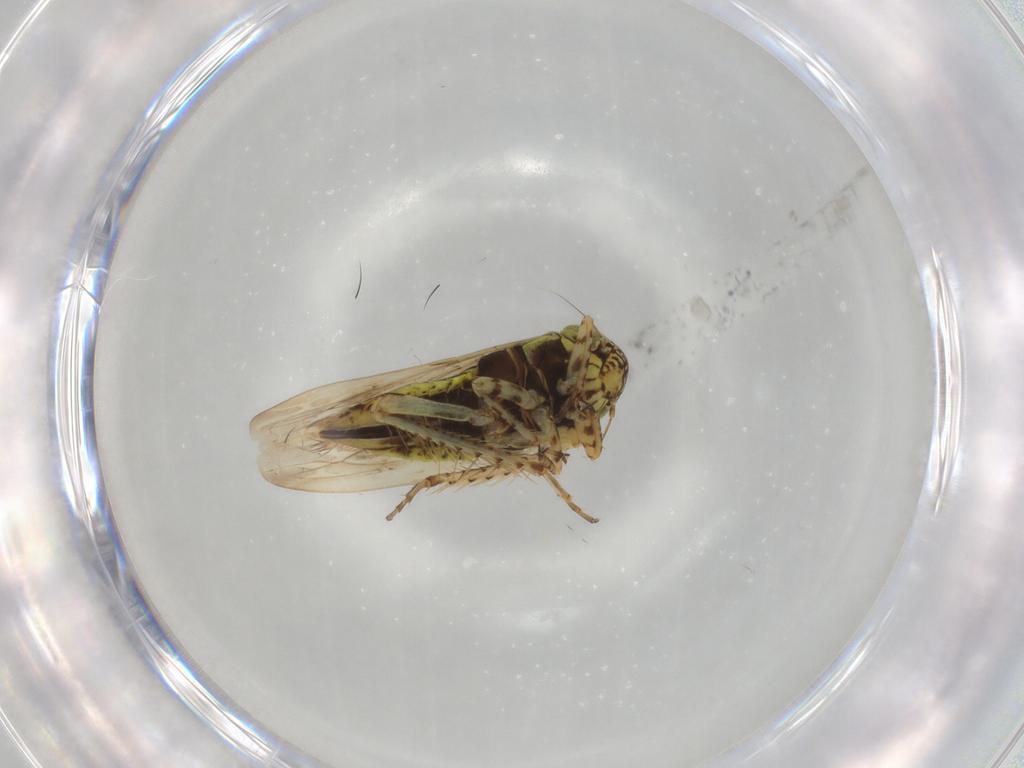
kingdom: Animalia
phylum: Arthropoda
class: Insecta
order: Hemiptera
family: Cicadellidae
